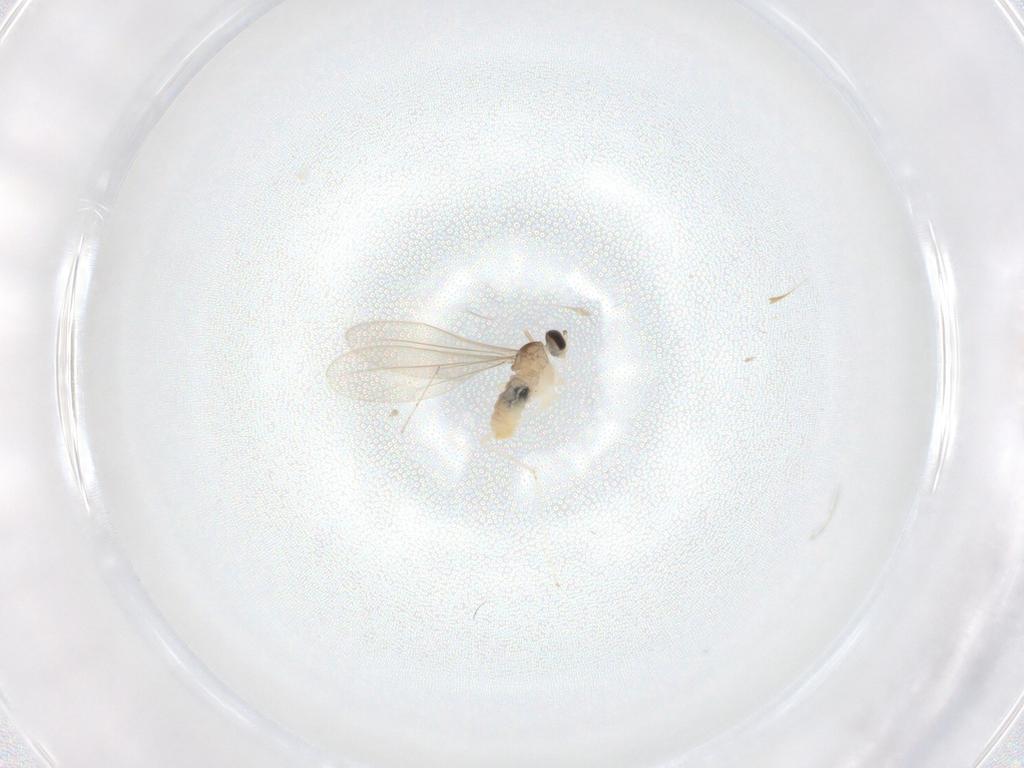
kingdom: Animalia
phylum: Arthropoda
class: Insecta
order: Diptera
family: Cecidomyiidae
